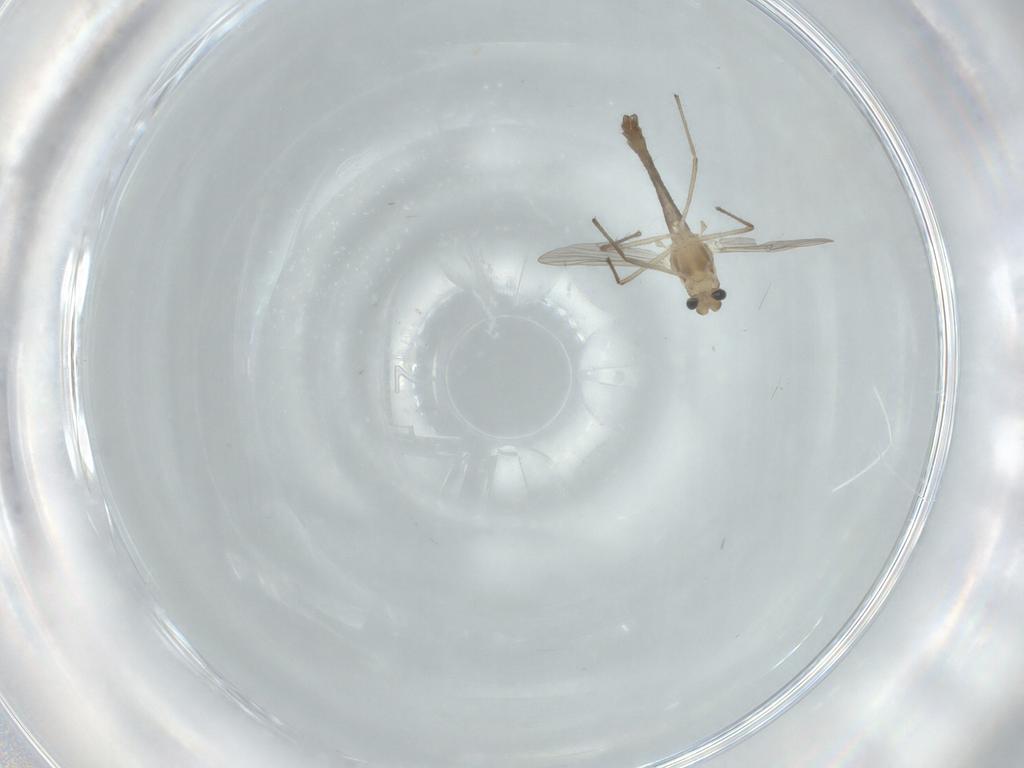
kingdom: Animalia
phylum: Arthropoda
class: Insecta
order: Diptera
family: Chironomidae
